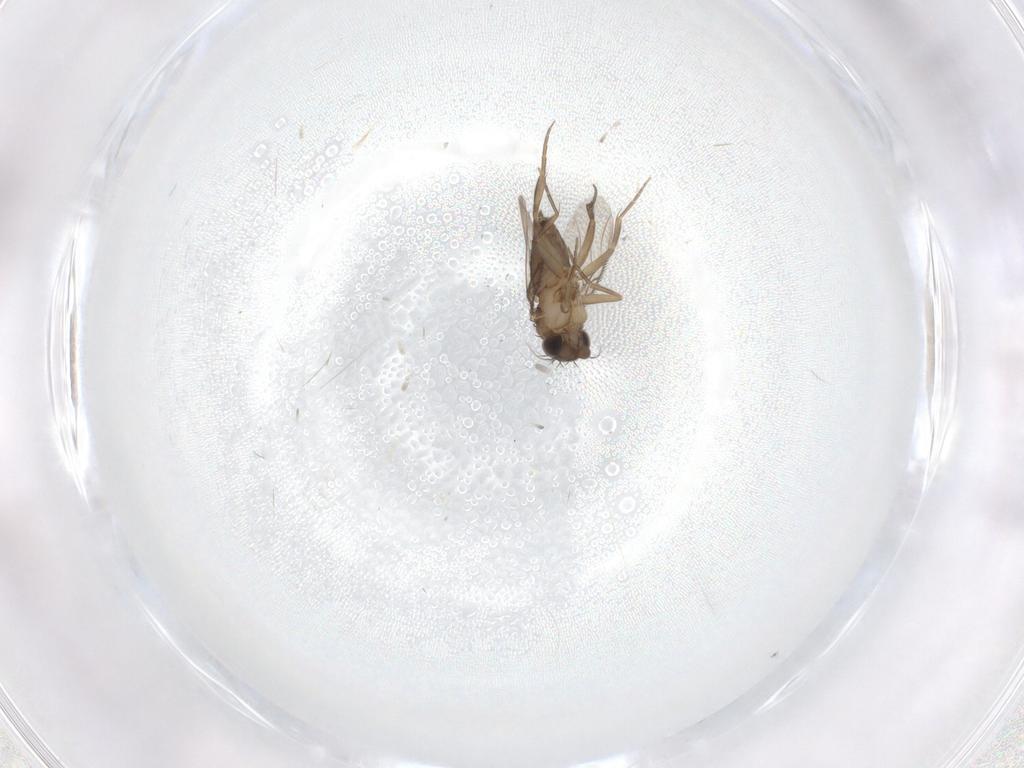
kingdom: Animalia
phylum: Arthropoda
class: Insecta
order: Diptera
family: Phoridae
